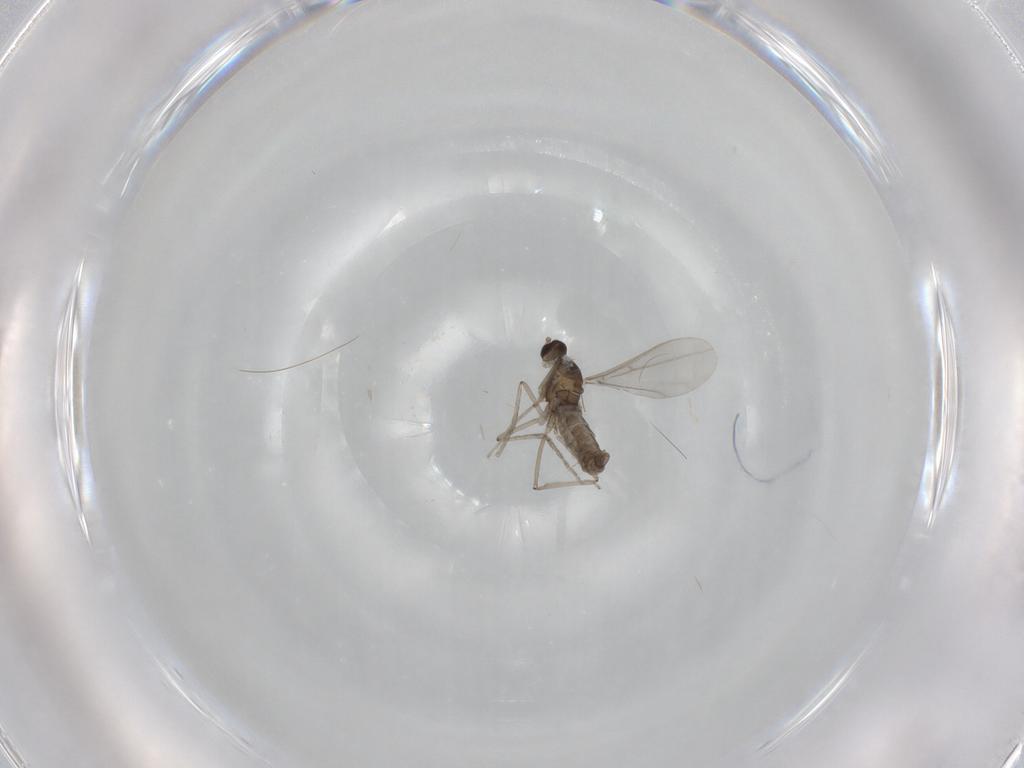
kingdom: Animalia
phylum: Arthropoda
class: Insecta
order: Diptera
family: Cecidomyiidae
